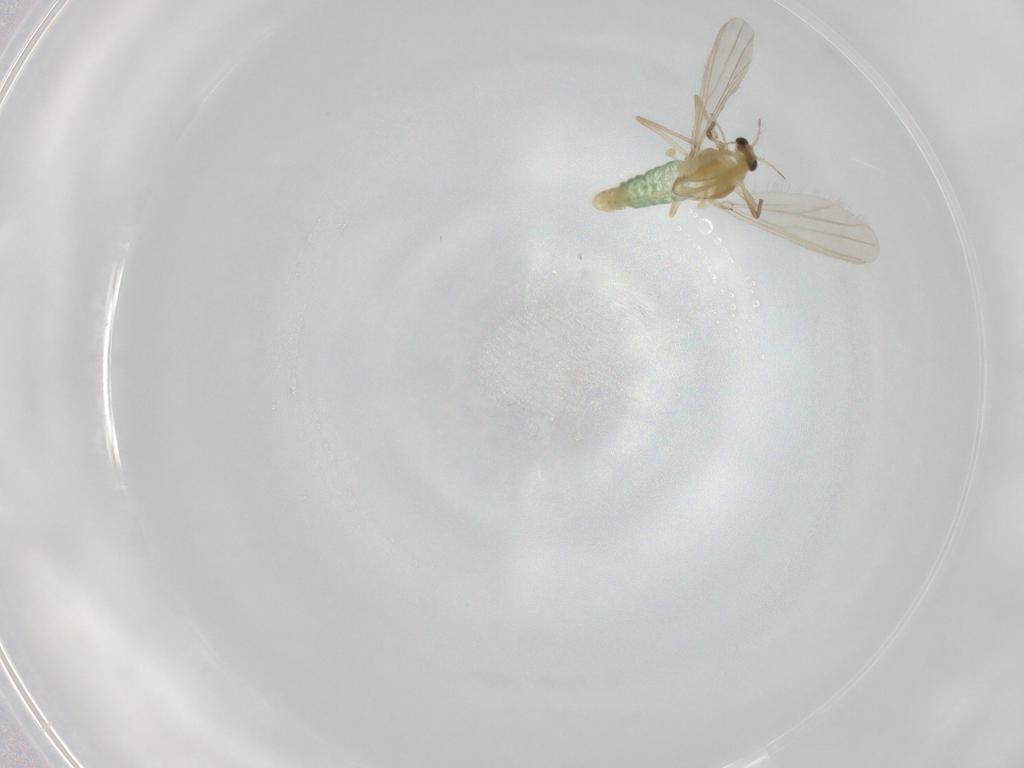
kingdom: Animalia
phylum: Arthropoda
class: Insecta
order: Diptera
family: Chironomidae
